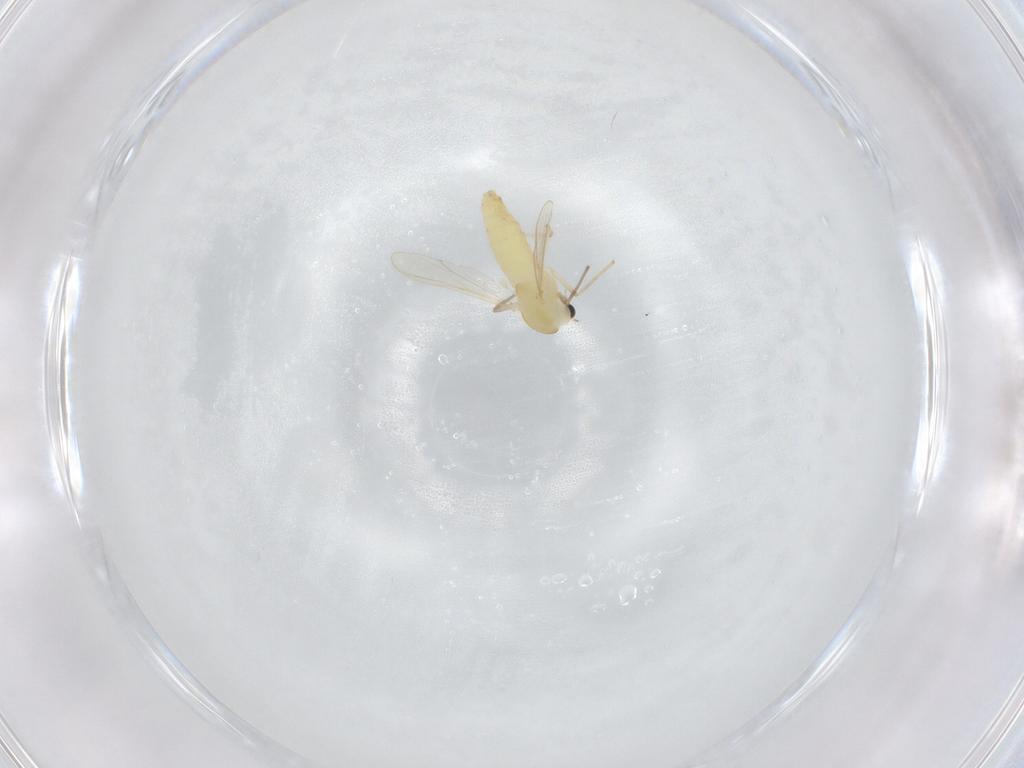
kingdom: Animalia
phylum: Arthropoda
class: Insecta
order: Diptera
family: Chironomidae
